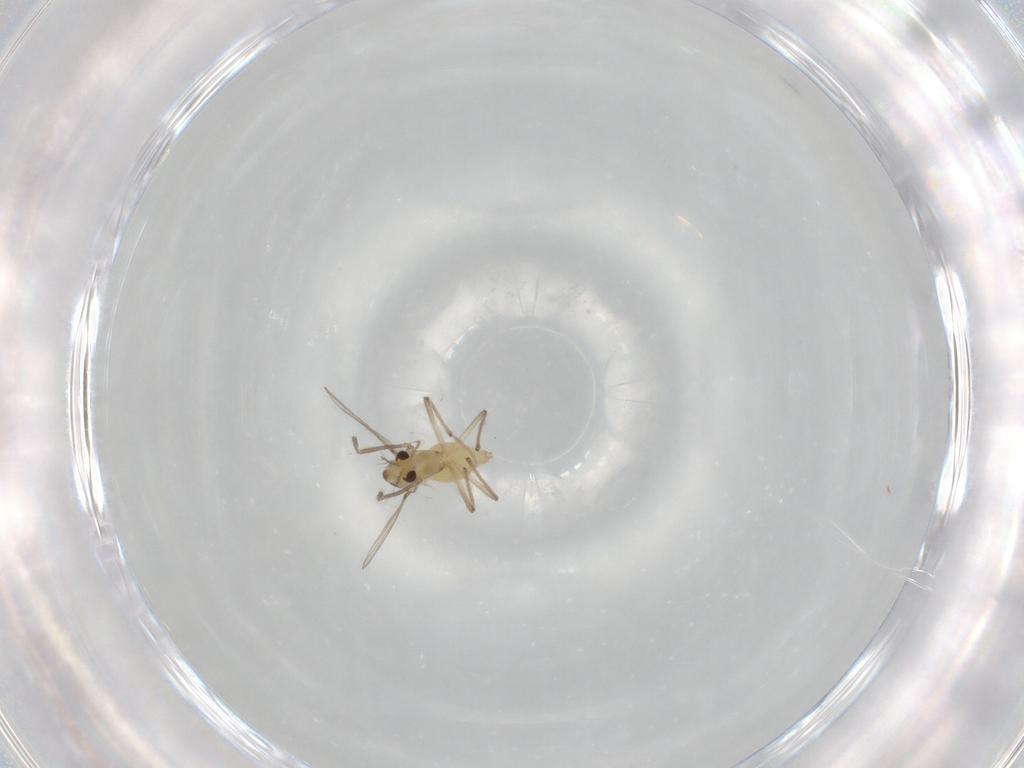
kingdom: Animalia
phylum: Arthropoda
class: Insecta
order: Diptera
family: Chironomidae
